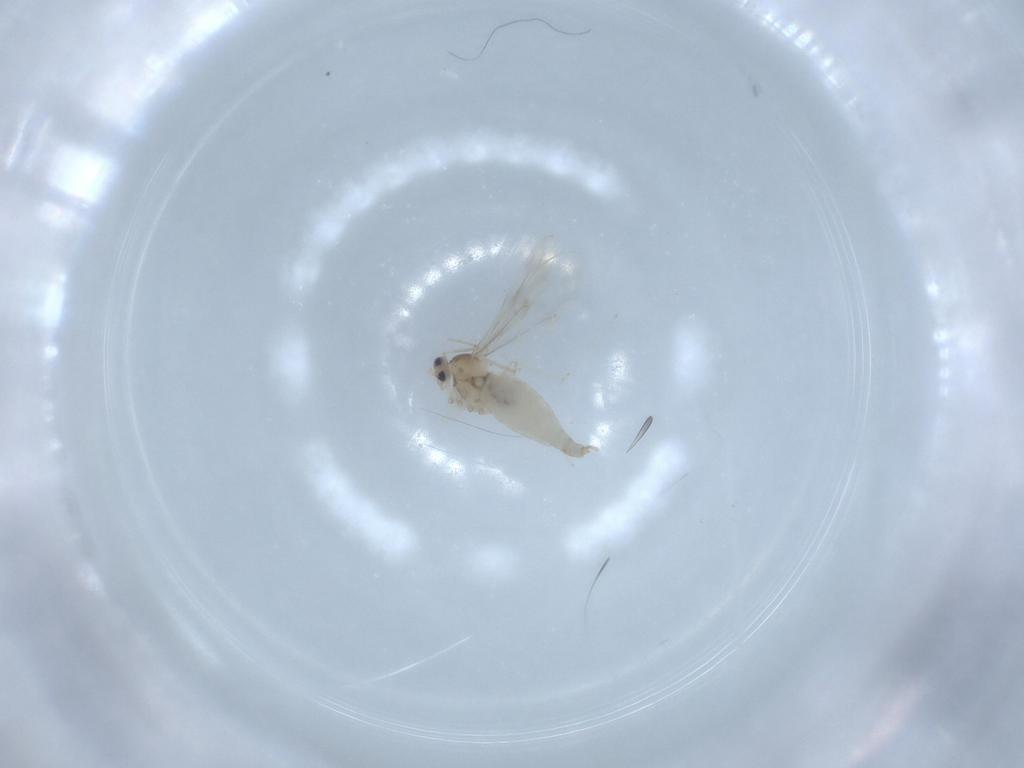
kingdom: Animalia
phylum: Arthropoda
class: Insecta
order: Diptera
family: Cecidomyiidae
